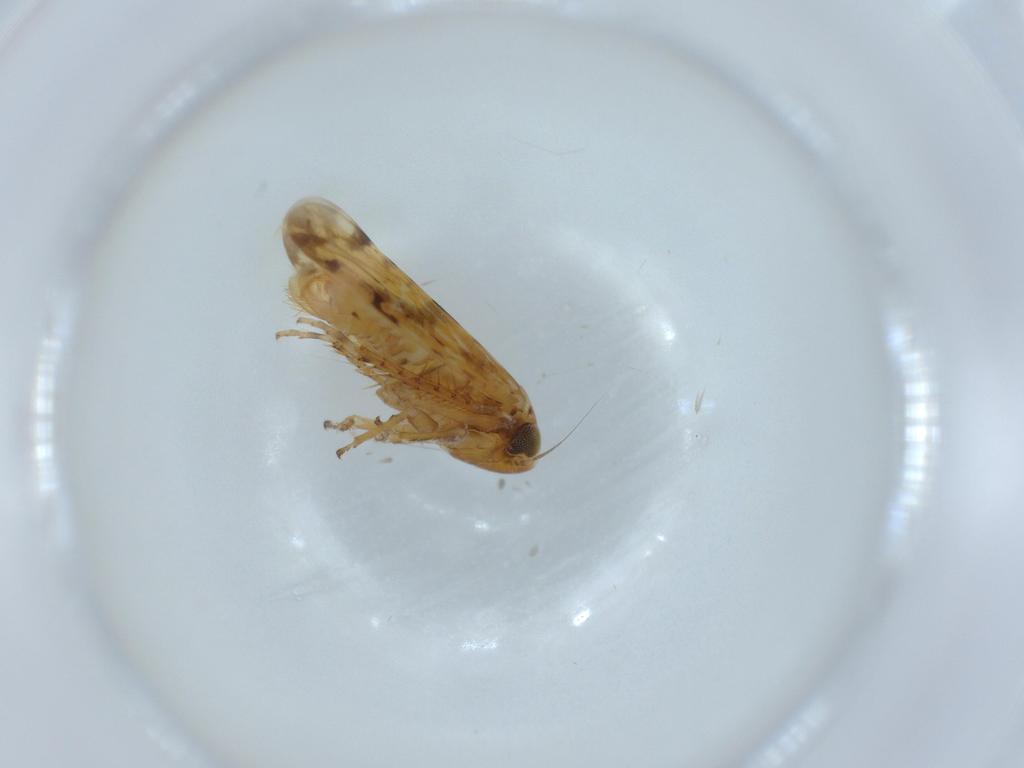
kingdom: Animalia
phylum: Arthropoda
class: Insecta
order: Hemiptera
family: Cicadellidae
